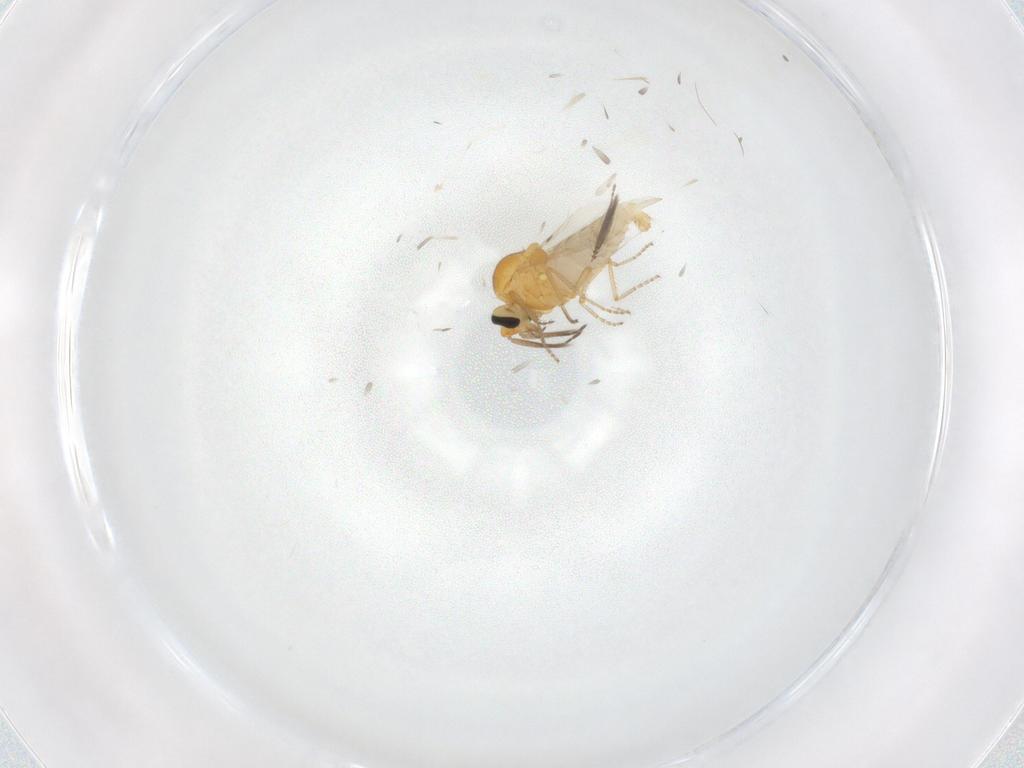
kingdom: Animalia
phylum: Arthropoda
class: Insecta
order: Diptera
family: Ceratopogonidae
